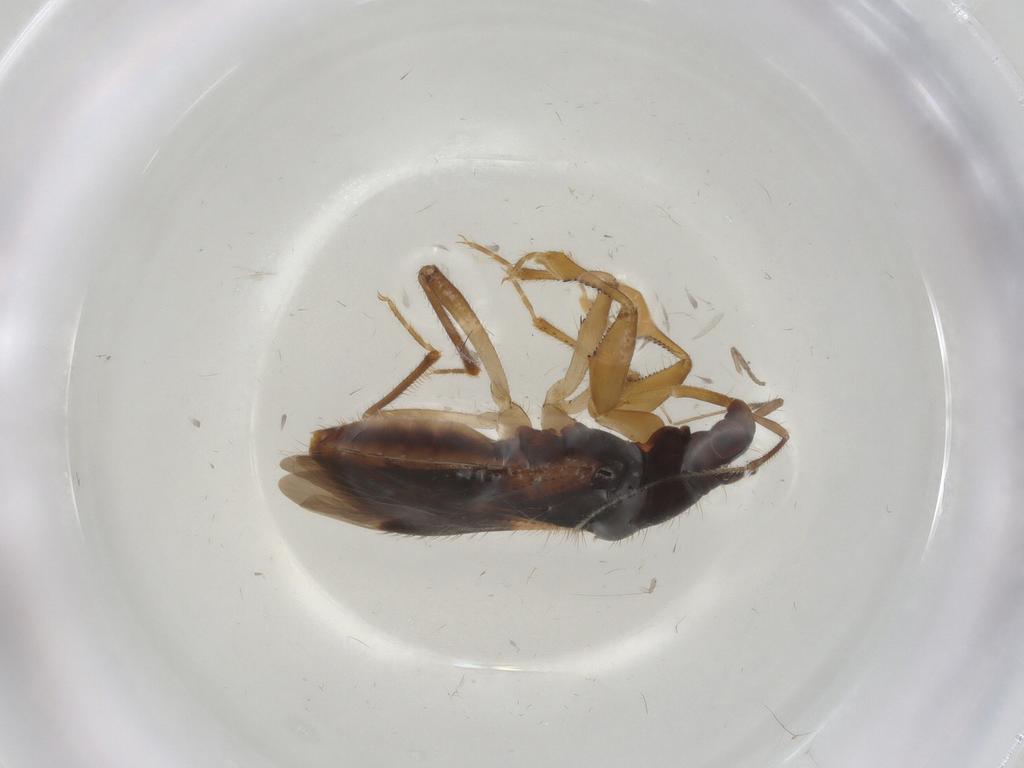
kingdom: Animalia
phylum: Arthropoda
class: Insecta
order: Hemiptera
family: Nabidae
